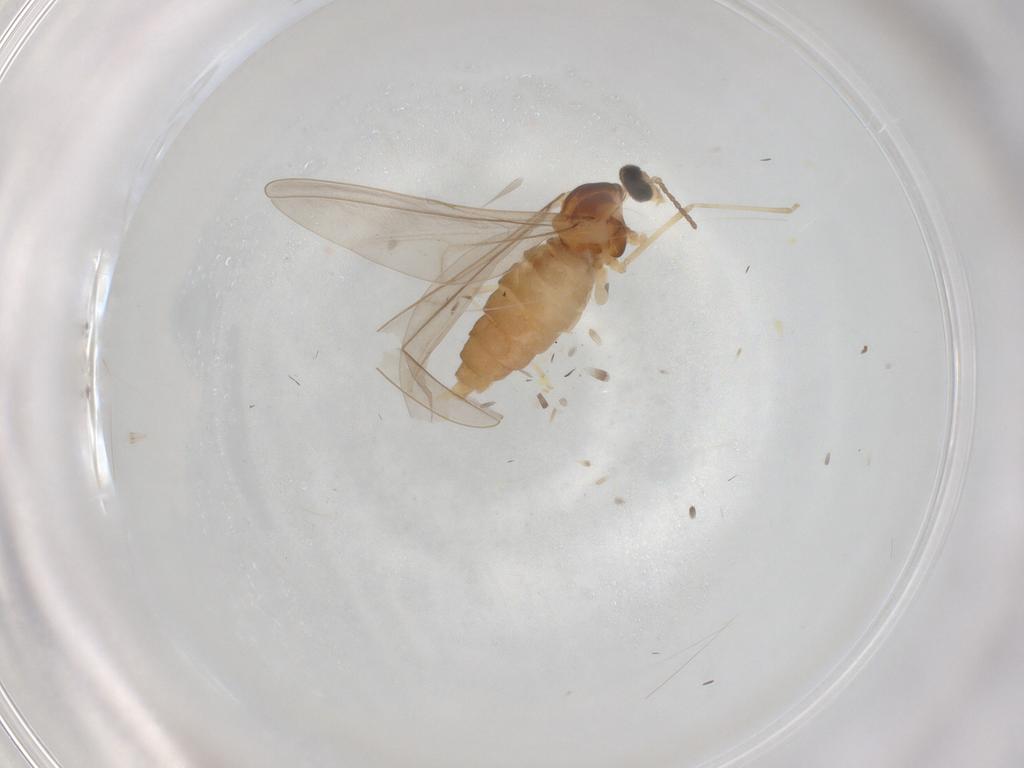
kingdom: Animalia
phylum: Arthropoda
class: Insecta
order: Diptera
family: Cecidomyiidae
